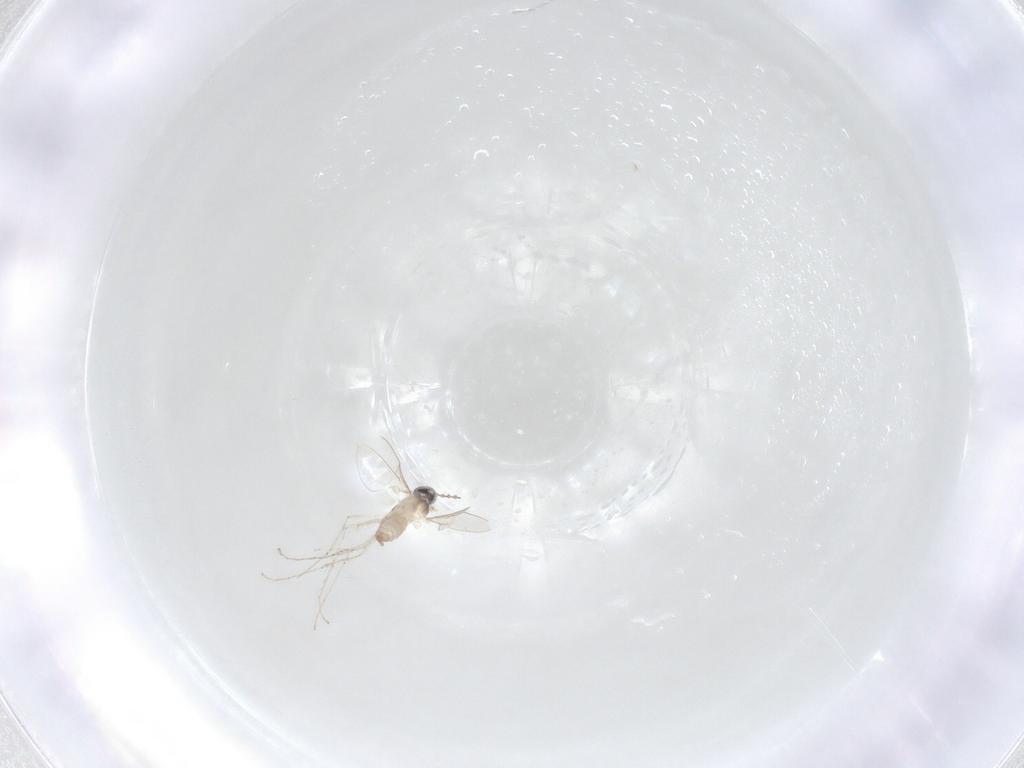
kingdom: Animalia
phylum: Arthropoda
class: Insecta
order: Diptera
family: Cecidomyiidae
